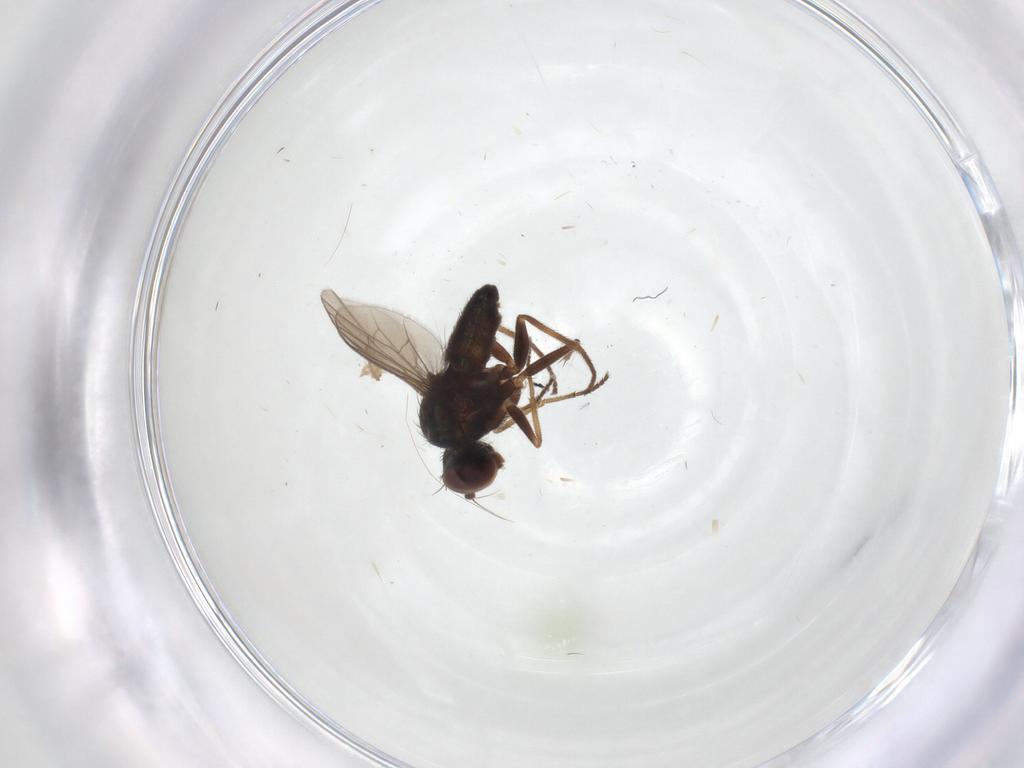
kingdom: Animalia
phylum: Arthropoda
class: Insecta
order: Diptera
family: Dolichopodidae
